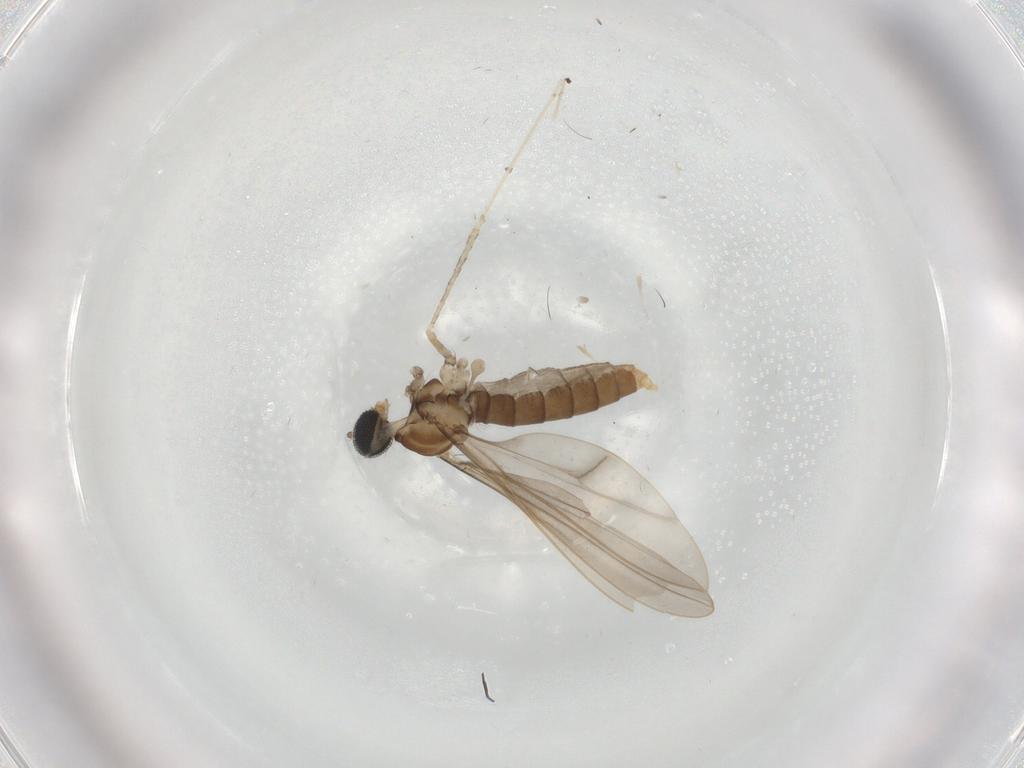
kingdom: Animalia
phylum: Arthropoda
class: Insecta
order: Diptera
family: Cecidomyiidae
